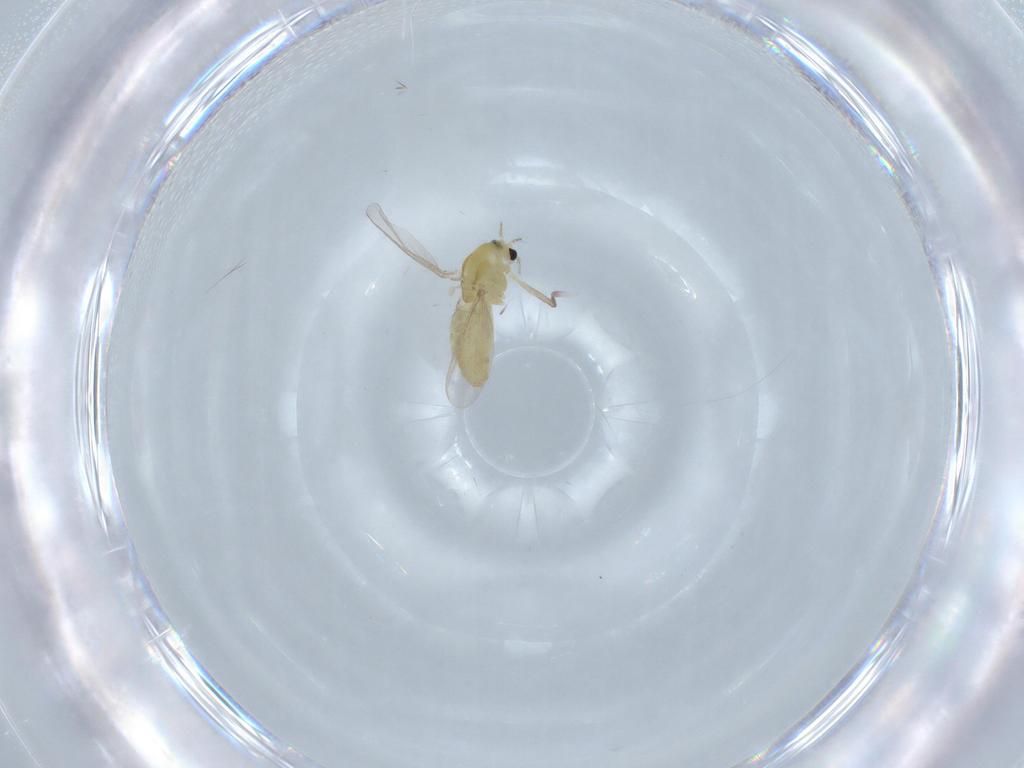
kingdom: Animalia
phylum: Arthropoda
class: Insecta
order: Diptera
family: Chironomidae
